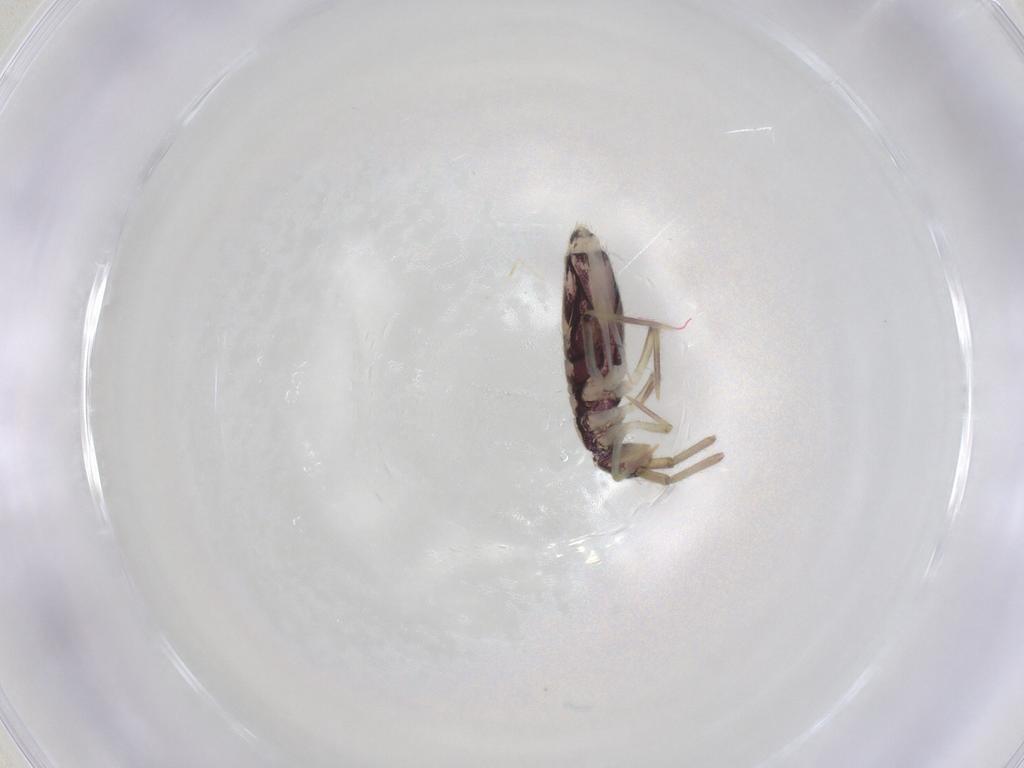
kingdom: Animalia
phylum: Arthropoda
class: Collembola
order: Entomobryomorpha
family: Entomobryidae
